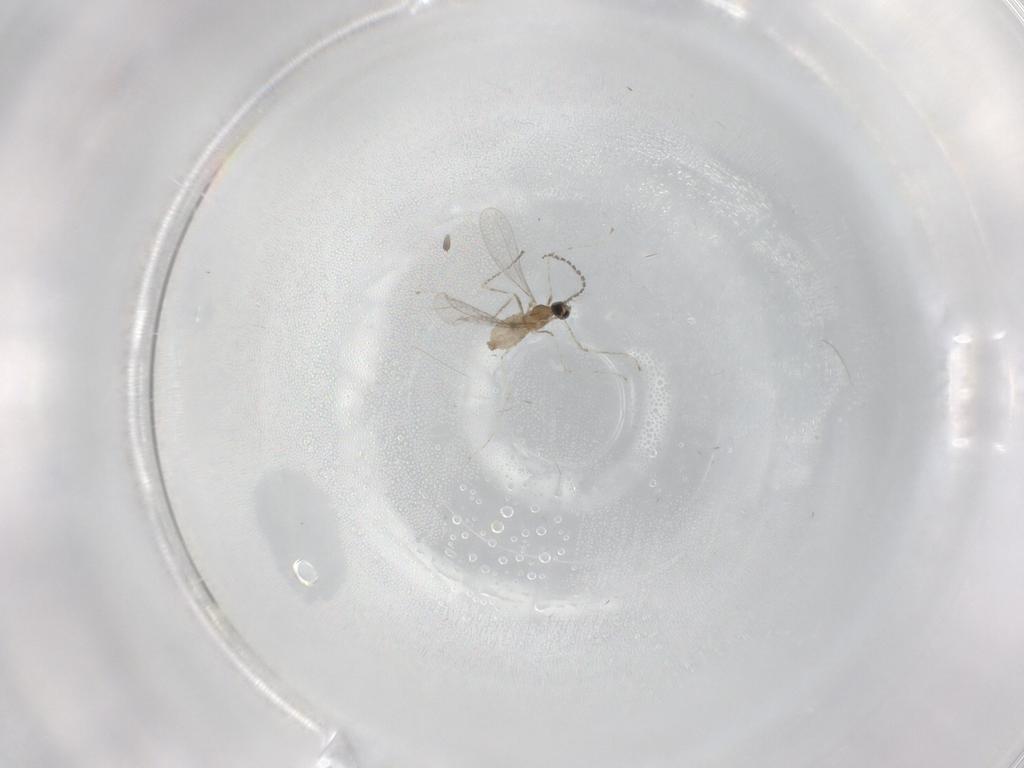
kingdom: Animalia
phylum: Arthropoda
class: Insecta
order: Diptera
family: Cecidomyiidae
